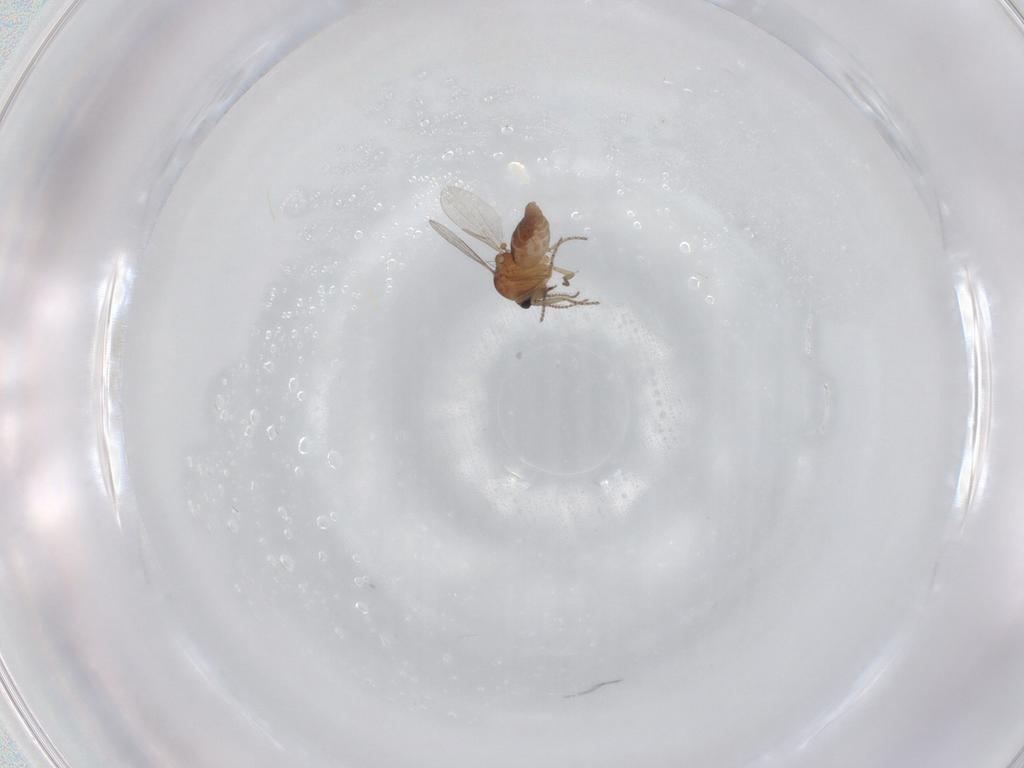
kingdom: Animalia
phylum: Arthropoda
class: Insecta
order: Diptera
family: Ceratopogonidae
